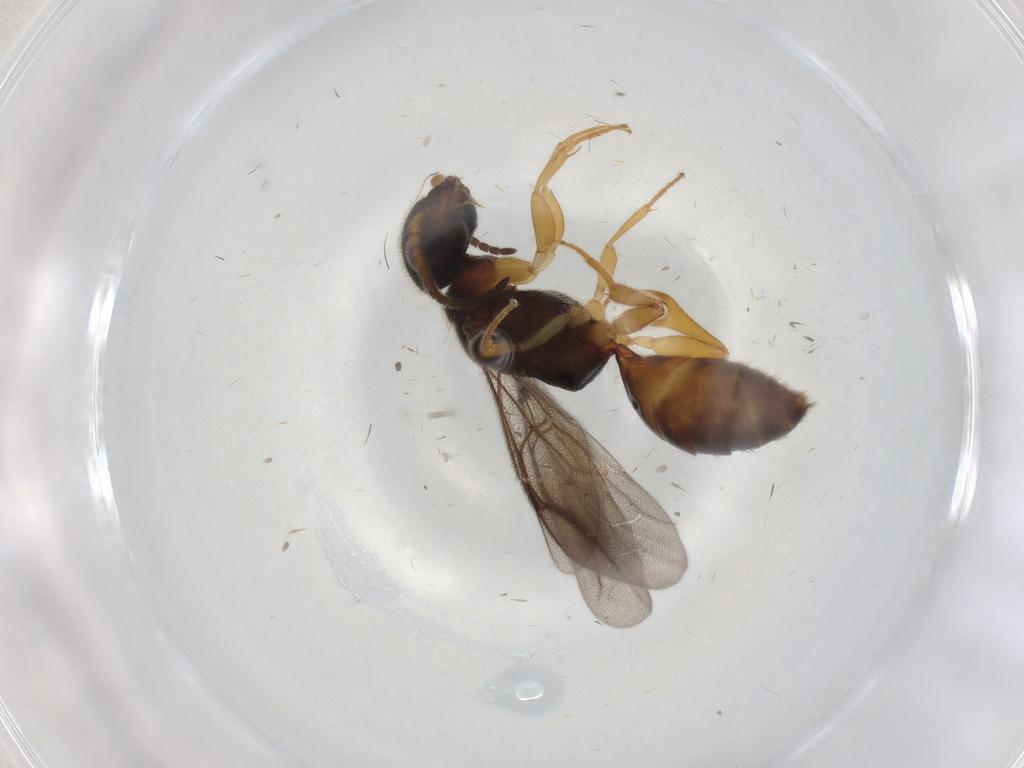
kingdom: Animalia
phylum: Arthropoda
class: Insecta
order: Hymenoptera
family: Bethylidae
